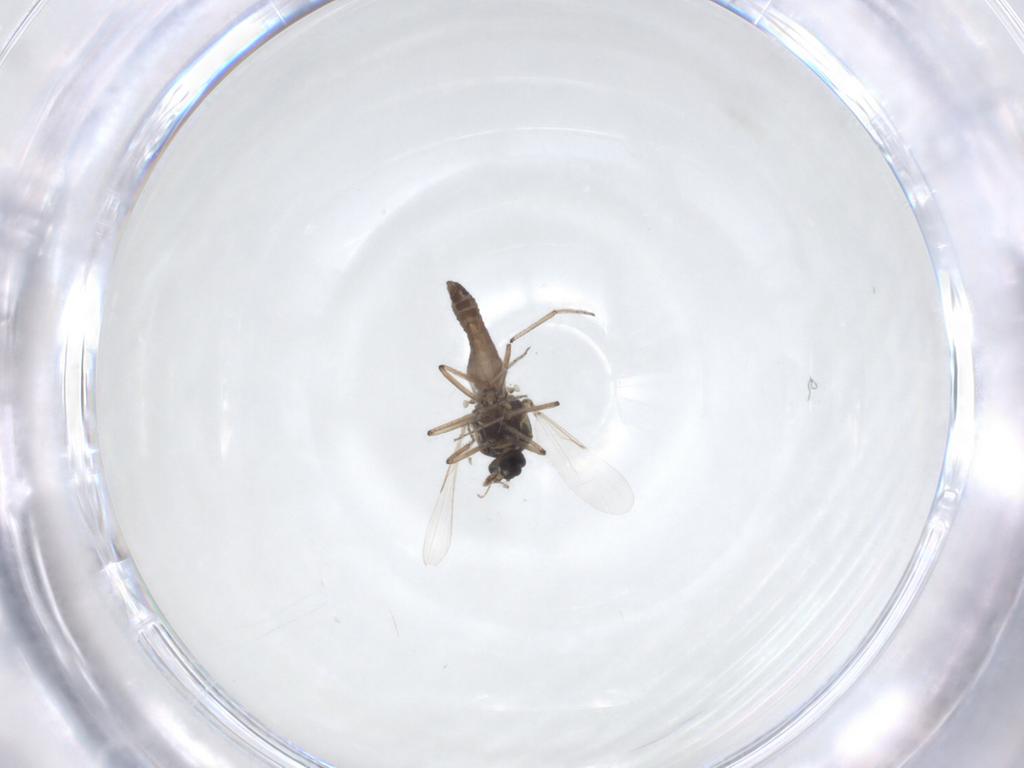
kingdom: Animalia
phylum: Arthropoda
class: Insecta
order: Diptera
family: Ceratopogonidae
